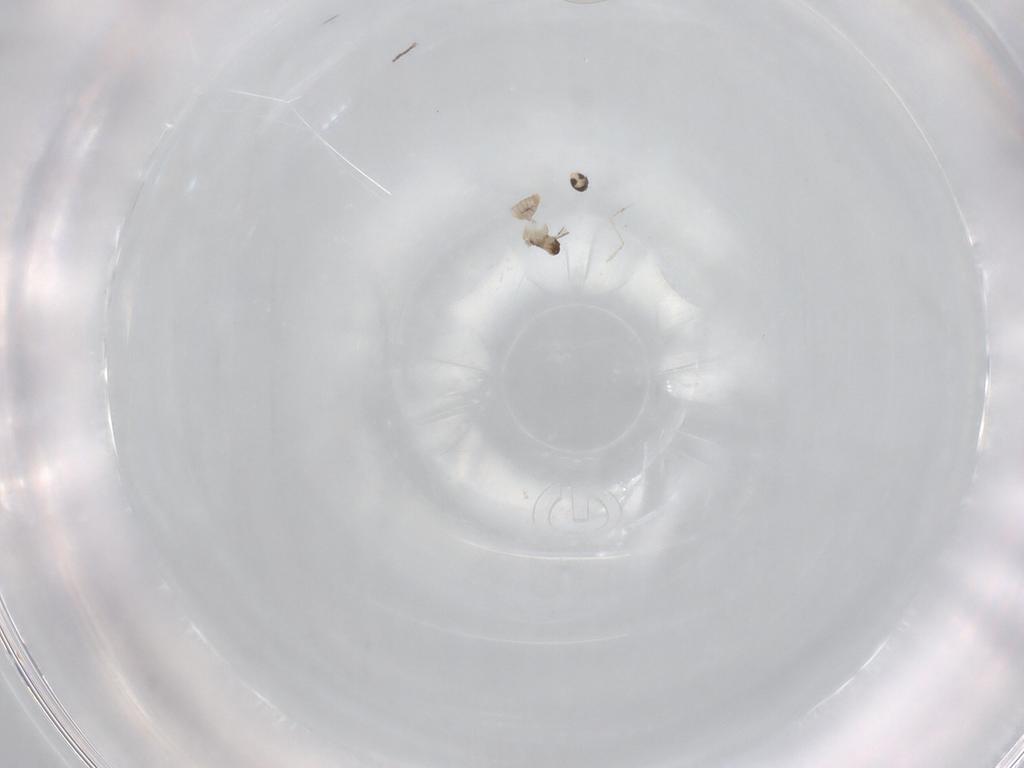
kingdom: Animalia
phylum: Arthropoda
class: Insecta
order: Diptera
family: Cecidomyiidae
